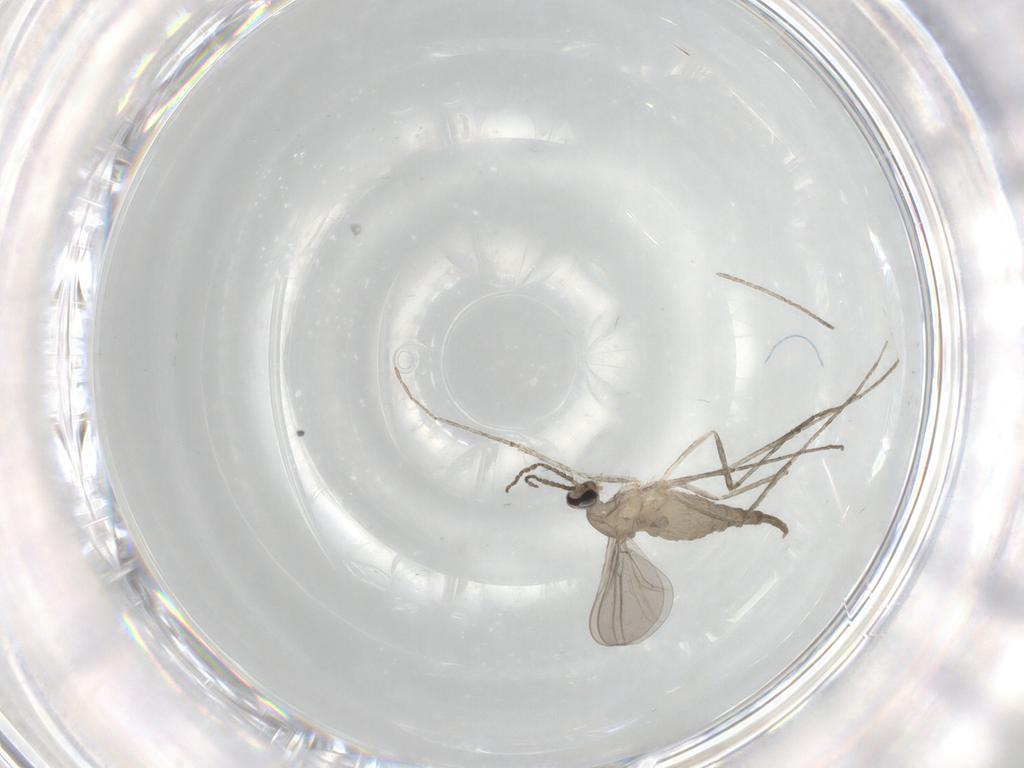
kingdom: Animalia
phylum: Arthropoda
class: Insecta
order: Diptera
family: Cecidomyiidae
